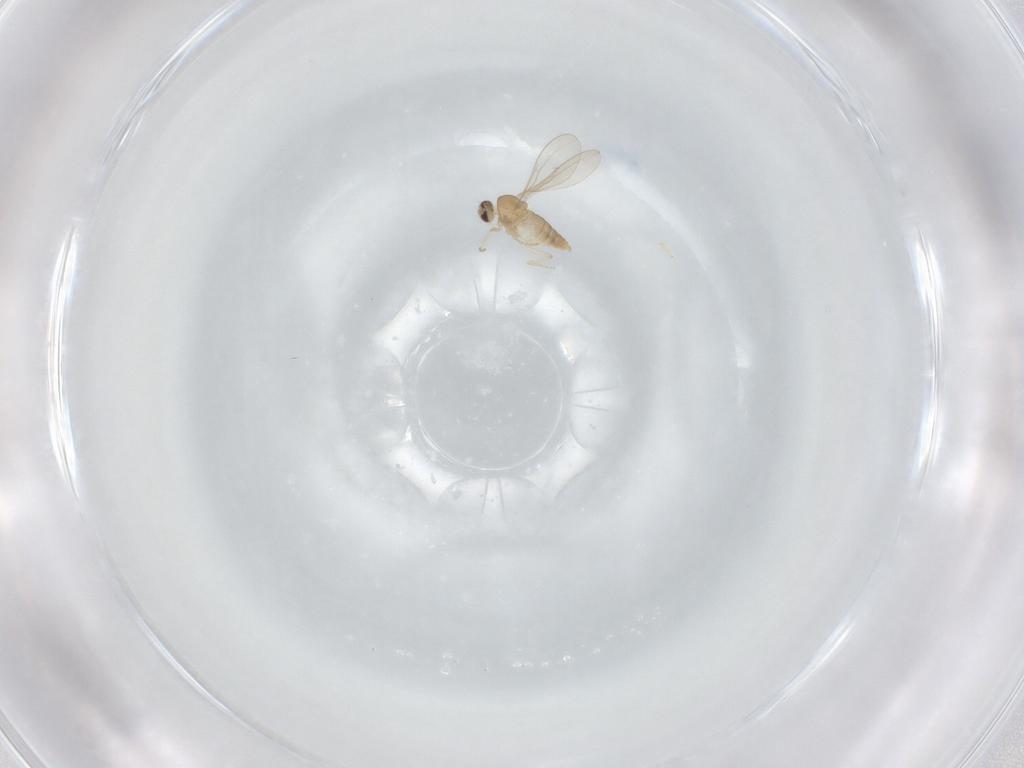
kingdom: Animalia
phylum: Arthropoda
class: Insecta
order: Diptera
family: Cecidomyiidae
